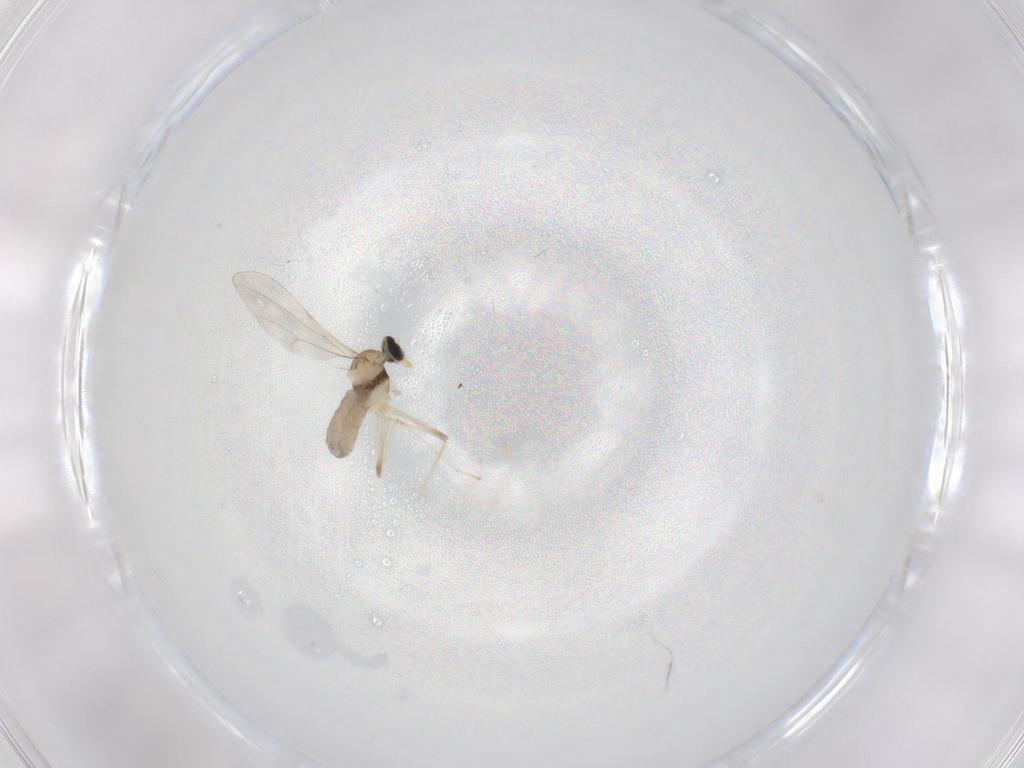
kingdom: Animalia
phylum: Arthropoda
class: Insecta
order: Diptera
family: Cecidomyiidae
